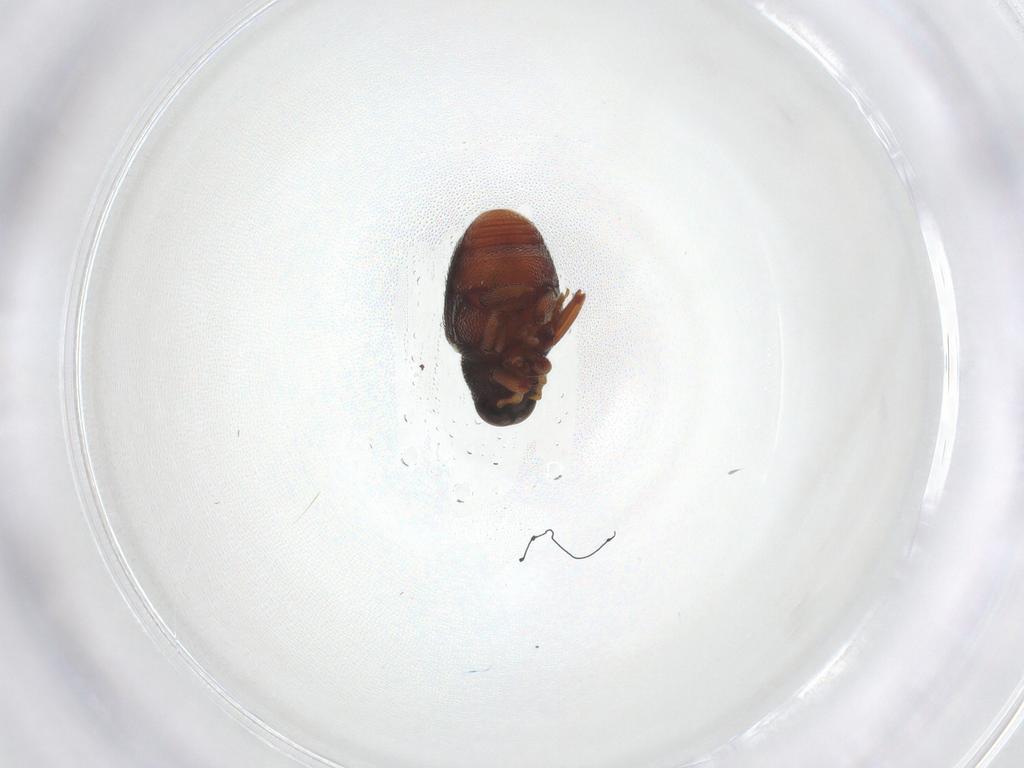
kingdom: Animalia
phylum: Arthropoda
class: Insecta
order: Coleoptera
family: Curculionidae
